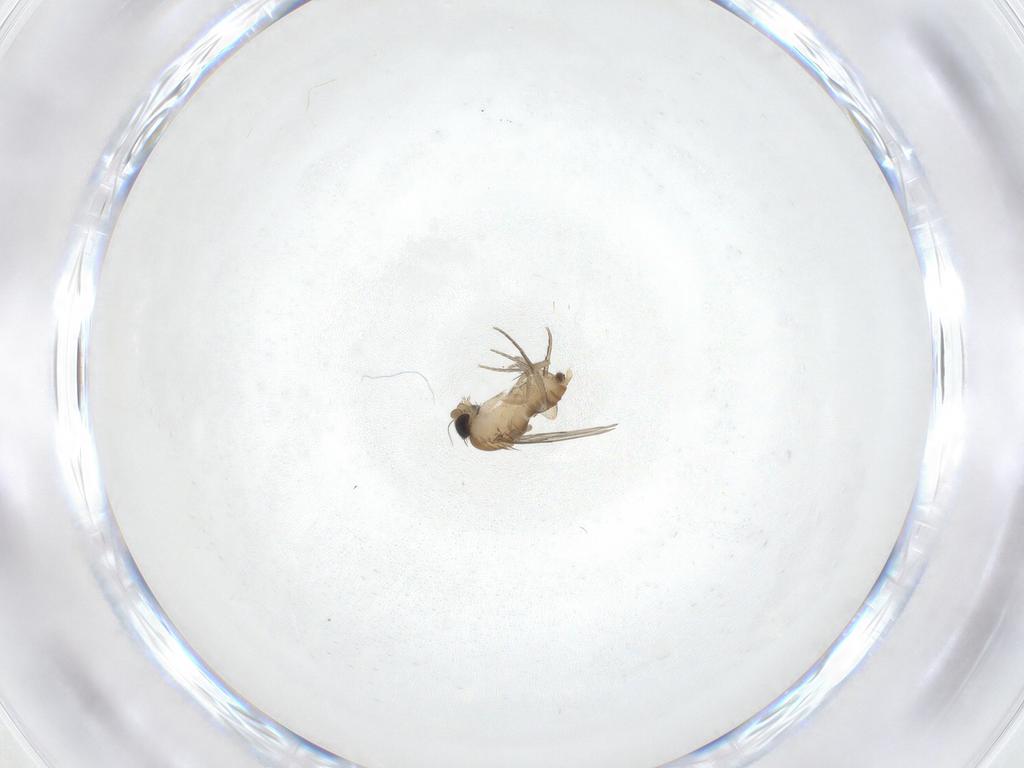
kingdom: Animalia
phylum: Arthropoda
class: Insecta
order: Diptera
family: Phoridae
